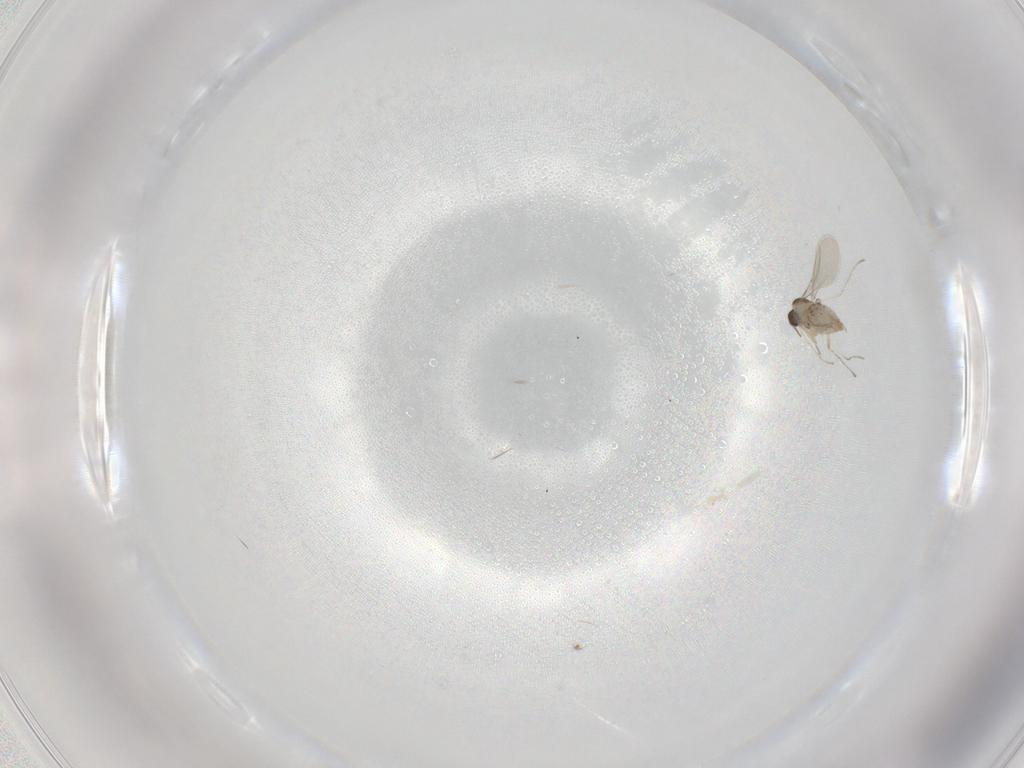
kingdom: Animalia
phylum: Arthropoda
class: Insecta
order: Diptera
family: Cecidomyiidae
